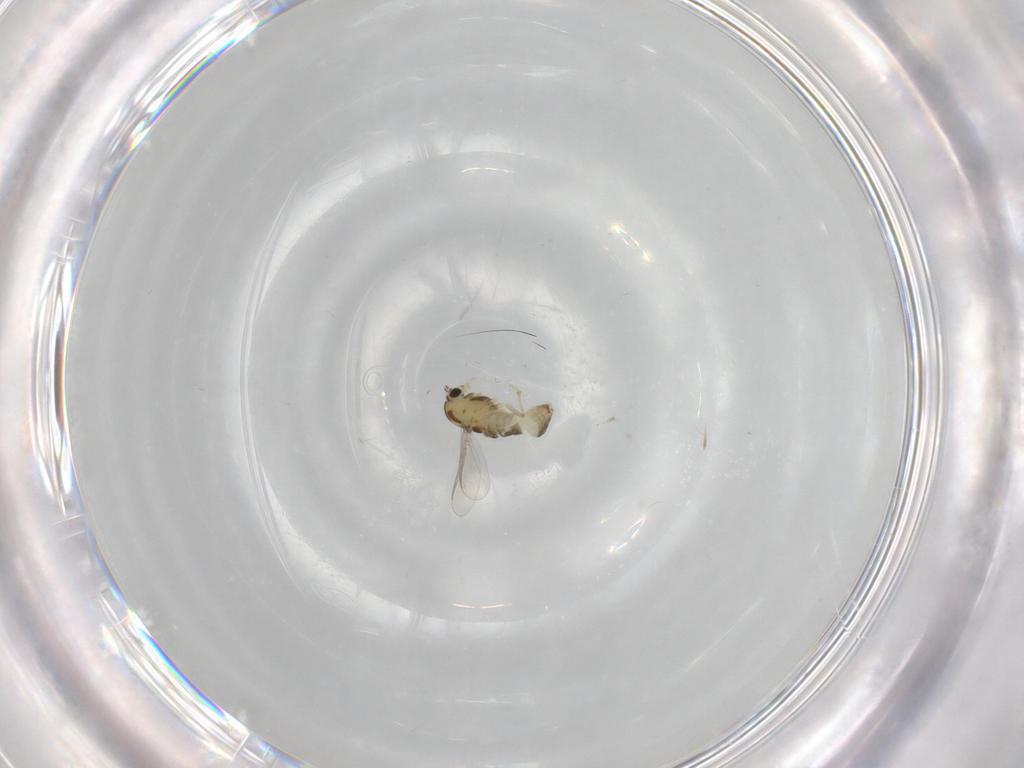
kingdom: Animalia
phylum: Arthropoda
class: Insecta
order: Diptera
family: Chironomidae
